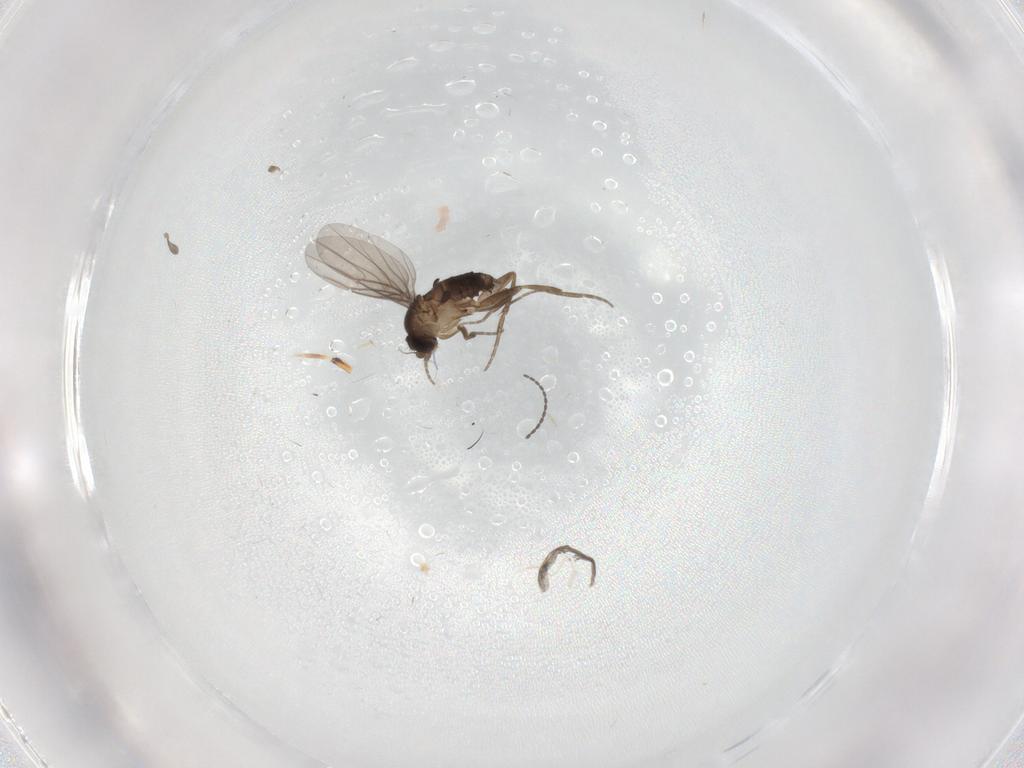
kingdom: Animalia
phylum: Arthropoda
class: Insecta
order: Diptera
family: Phoridae
